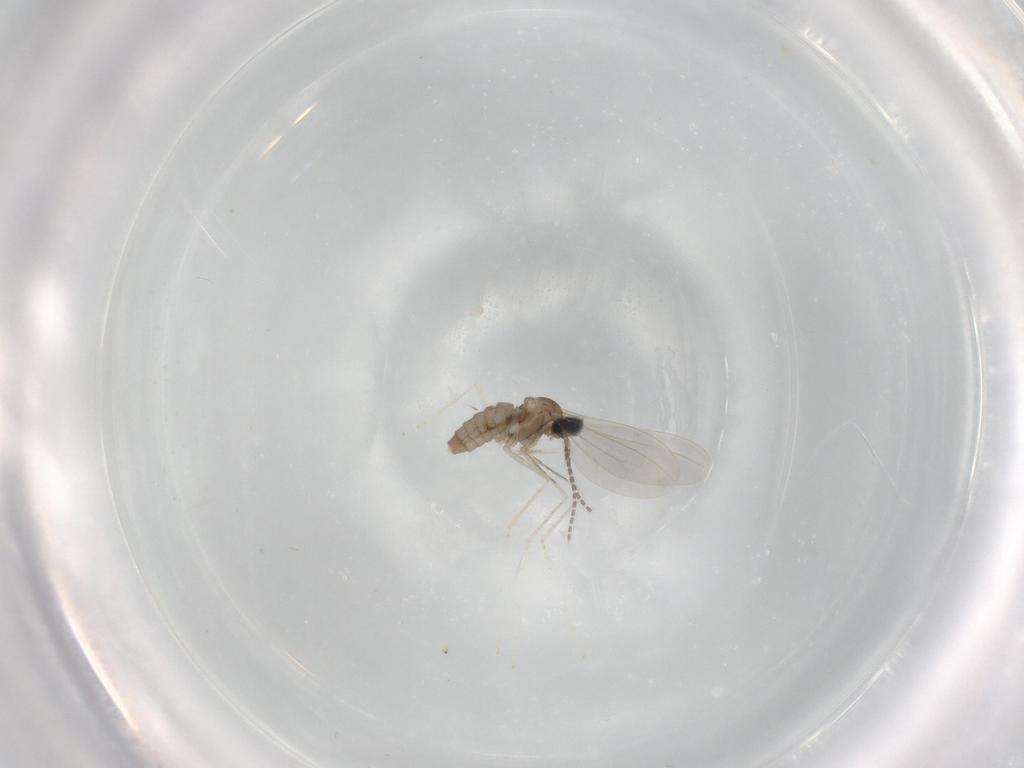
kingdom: Animalia
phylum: Arthropoda
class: Insecta
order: Diptera
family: Cecidomyiidae
